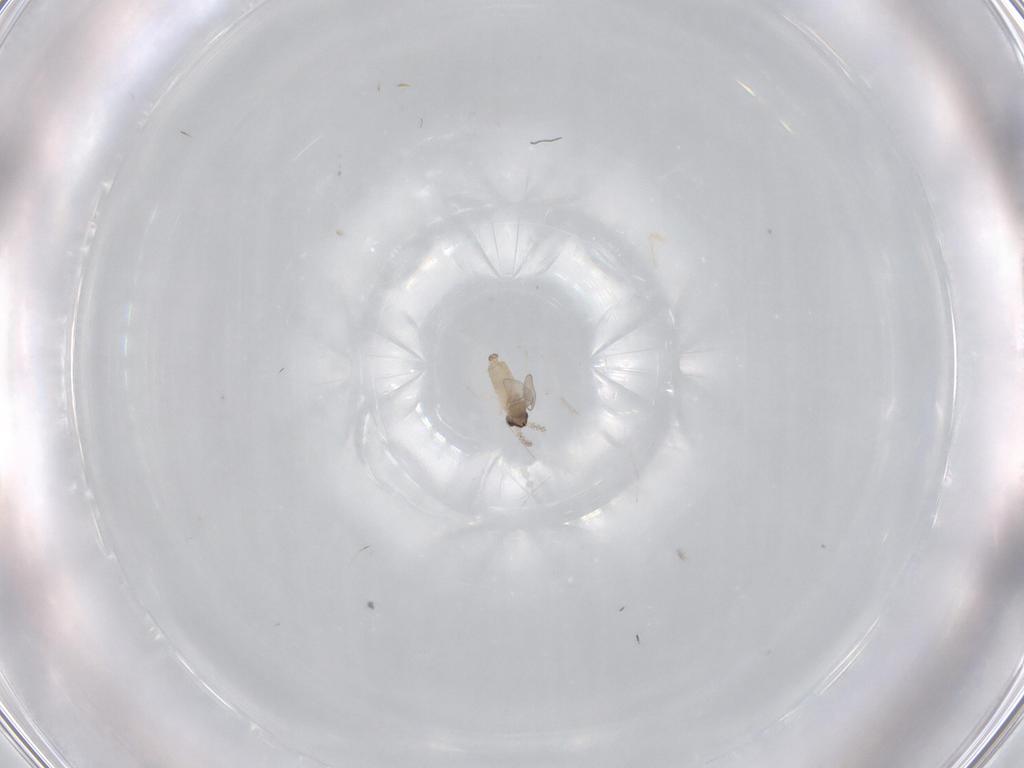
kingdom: Animalia
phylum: Arthropoda
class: Insecta
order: Diptera
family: Cecidomyiidae
